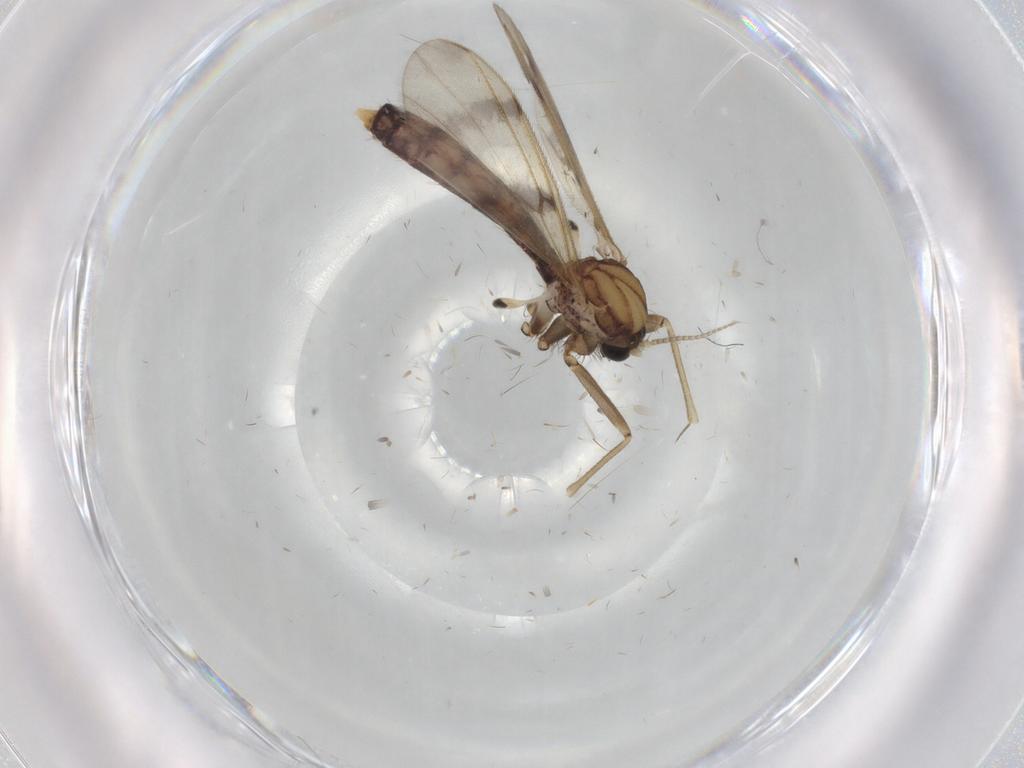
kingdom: Animalia
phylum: Arthropoda
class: Insecta
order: Diptera
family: Mycetophilidae
